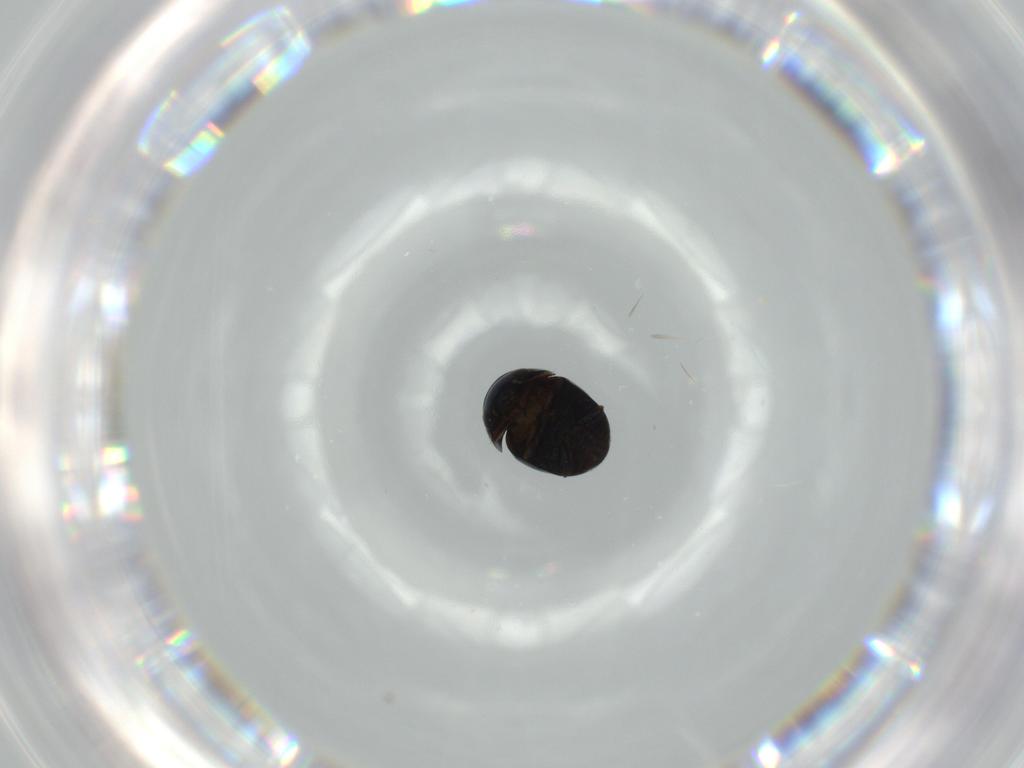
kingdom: Animalia
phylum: Arthropoda
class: Insecta
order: Coleoptera
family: Cybocephalidae
